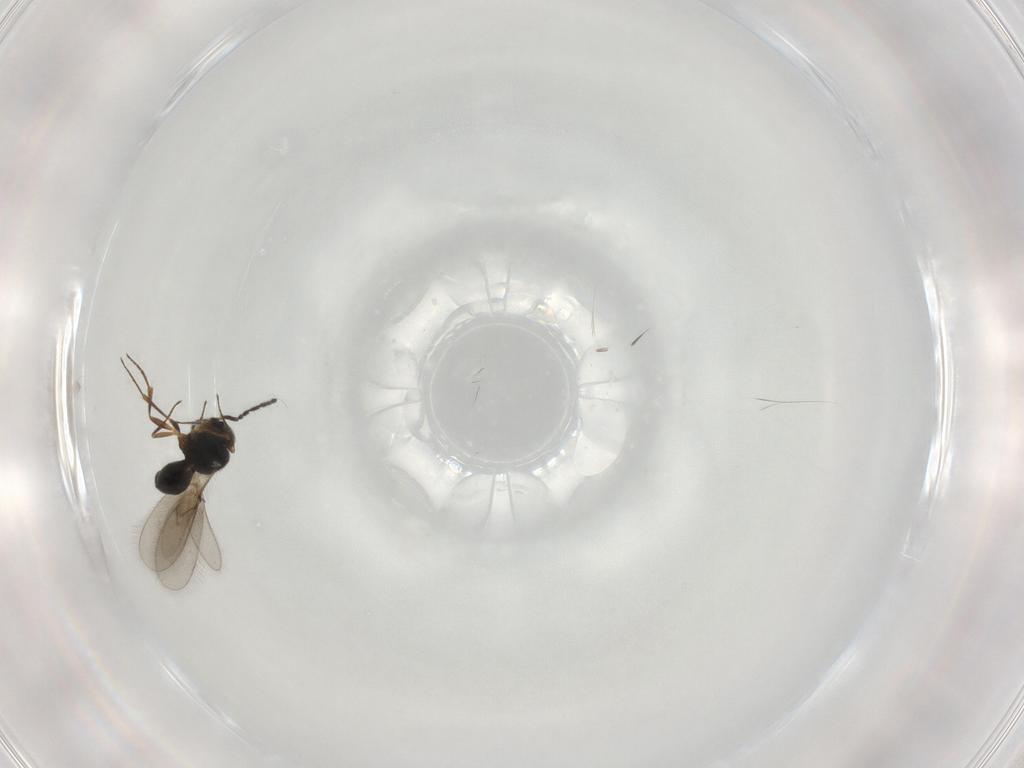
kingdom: Animalia
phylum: Arthropoda
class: Insecta
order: Hymenoptera
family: Scelionidae
